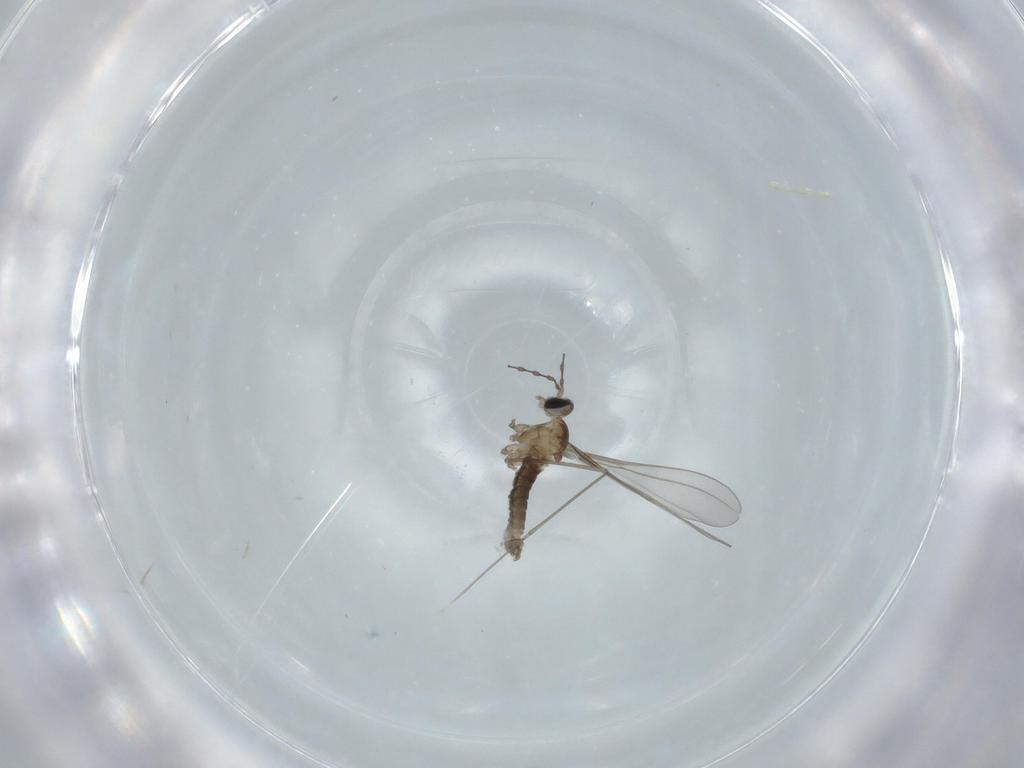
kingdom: Animalia
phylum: Arthropoda
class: Insecta
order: Diptera
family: Cecidomyiidae
